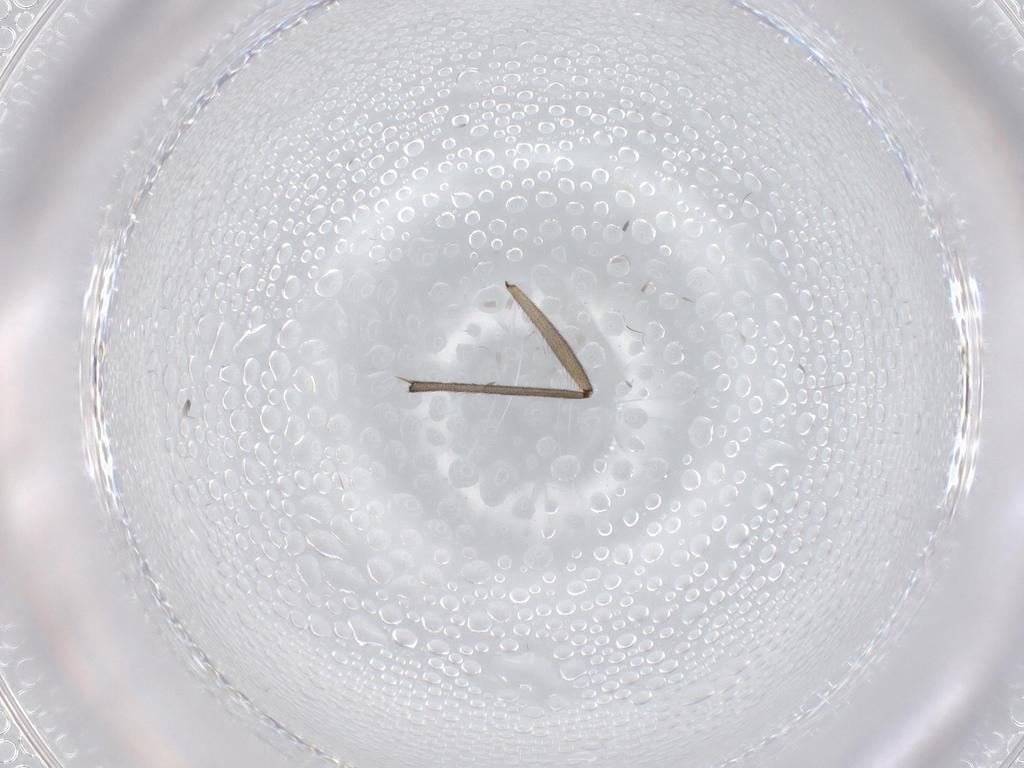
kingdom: Animalia
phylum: Arthropoda
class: Insecta
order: Diptera
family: Sciaridae
